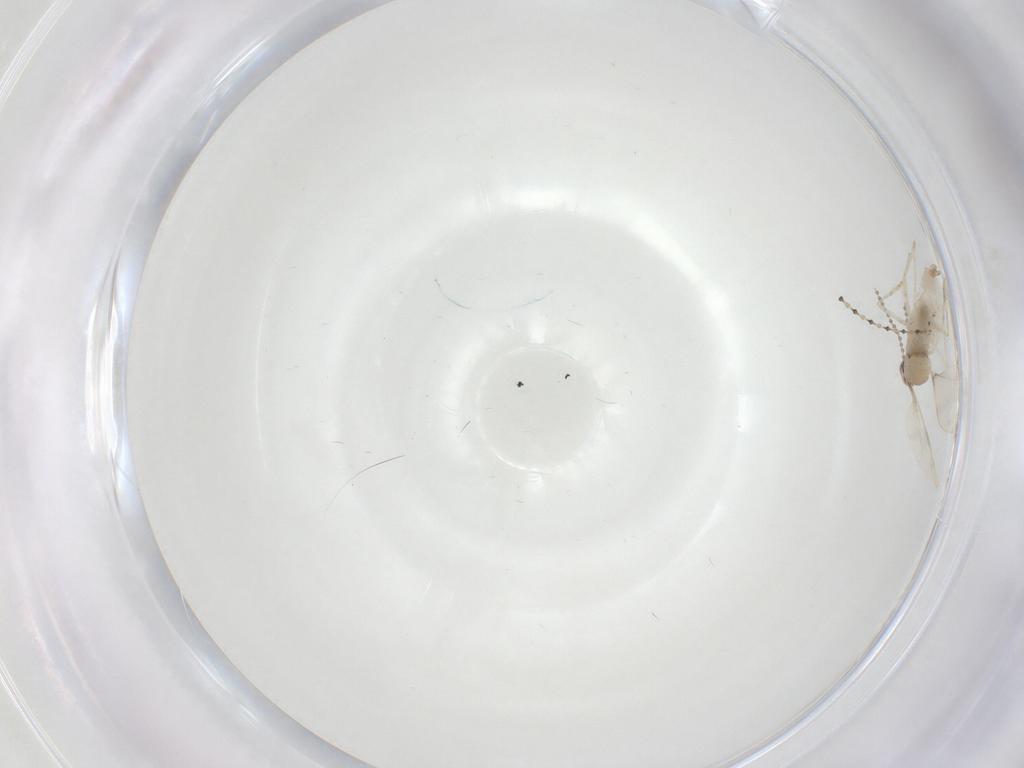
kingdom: Animalia
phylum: Arthropoda
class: Insecta
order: Diptera
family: Cecidomyiidae
